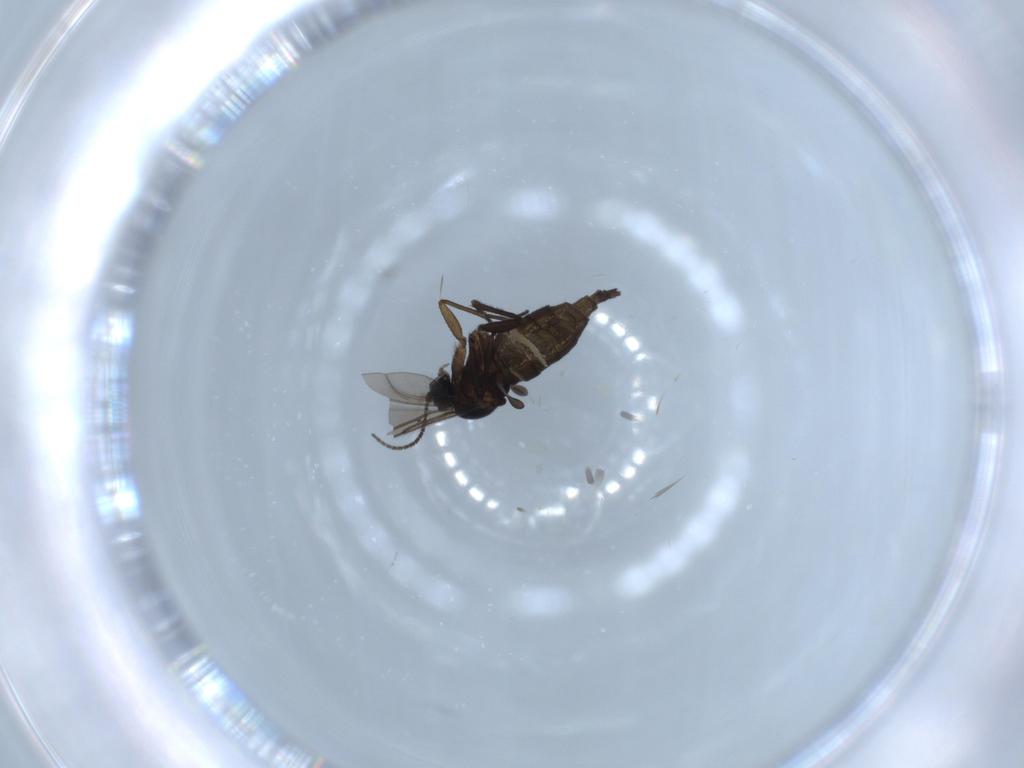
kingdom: Animalia
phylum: Arthropoda
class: Insecta
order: Diptera
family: Sciaridae
